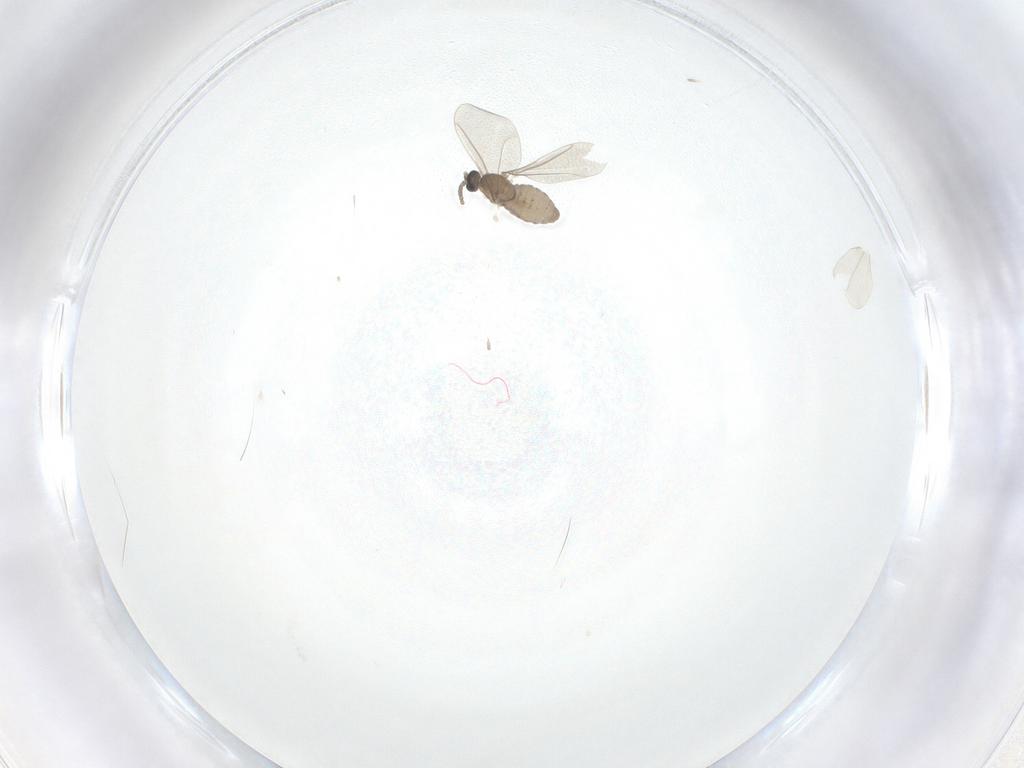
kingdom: Animalia
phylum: Arthropoda
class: Insecta
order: Diptera
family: Cecidomyiidae
